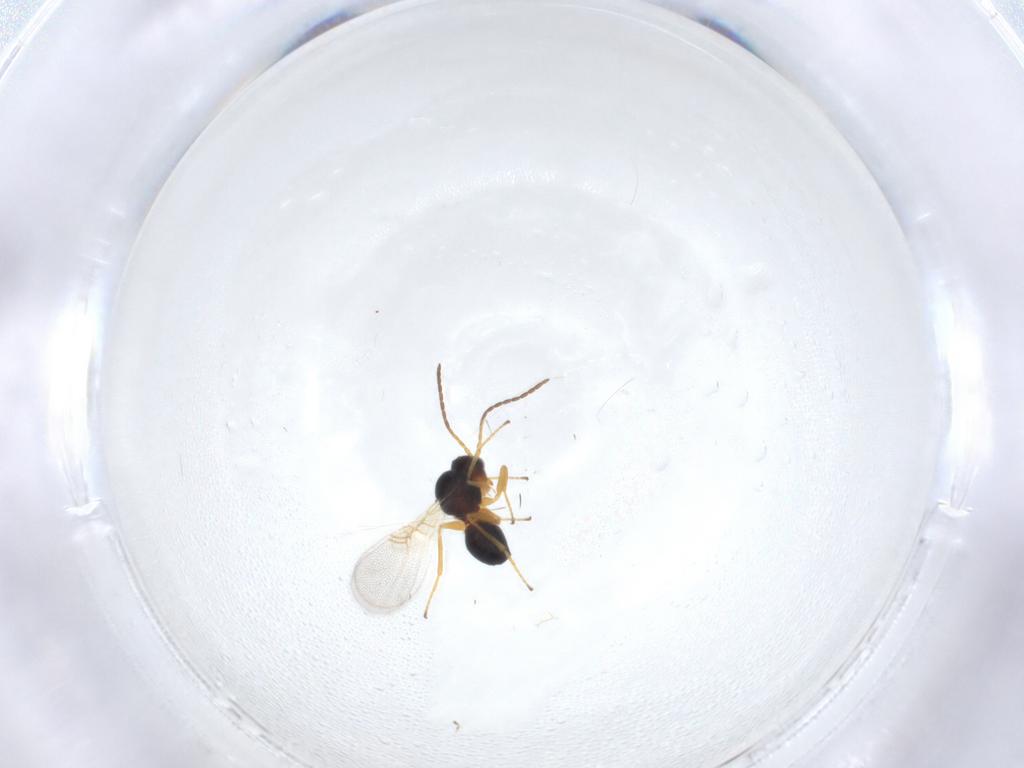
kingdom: Animalia
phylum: Arthropoda
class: Insecta
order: Hymenoptera
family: Figitidae
